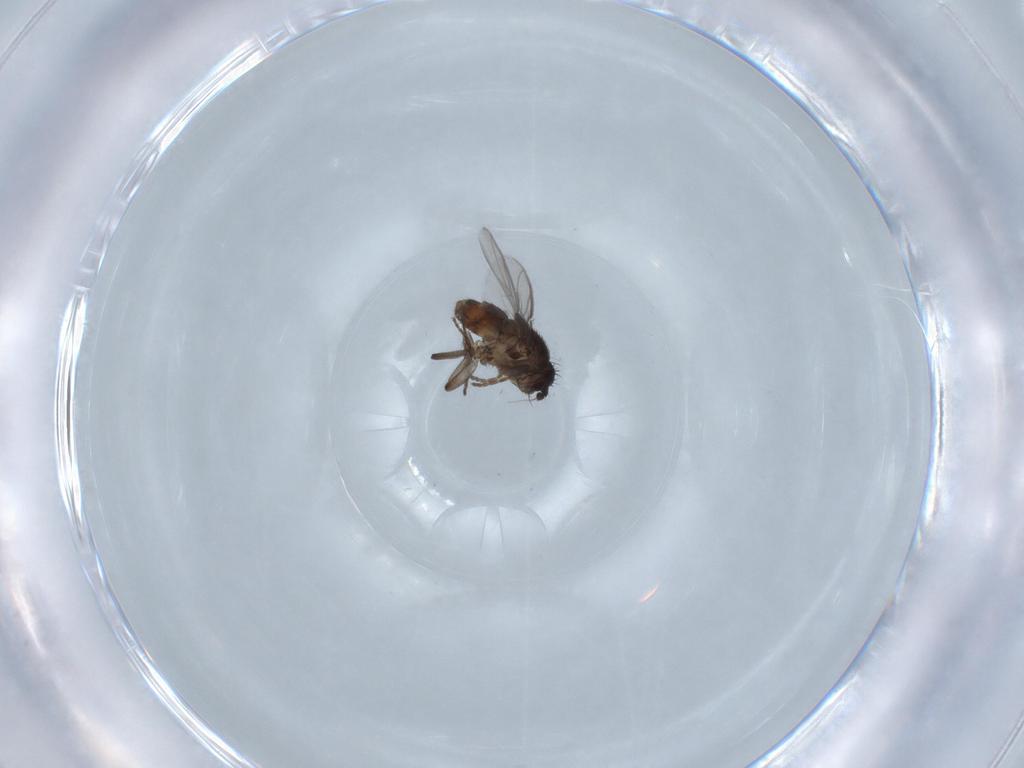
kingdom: Animalia
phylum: Arthropoda
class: Insecta
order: Diptera
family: Sphaeroceridae
